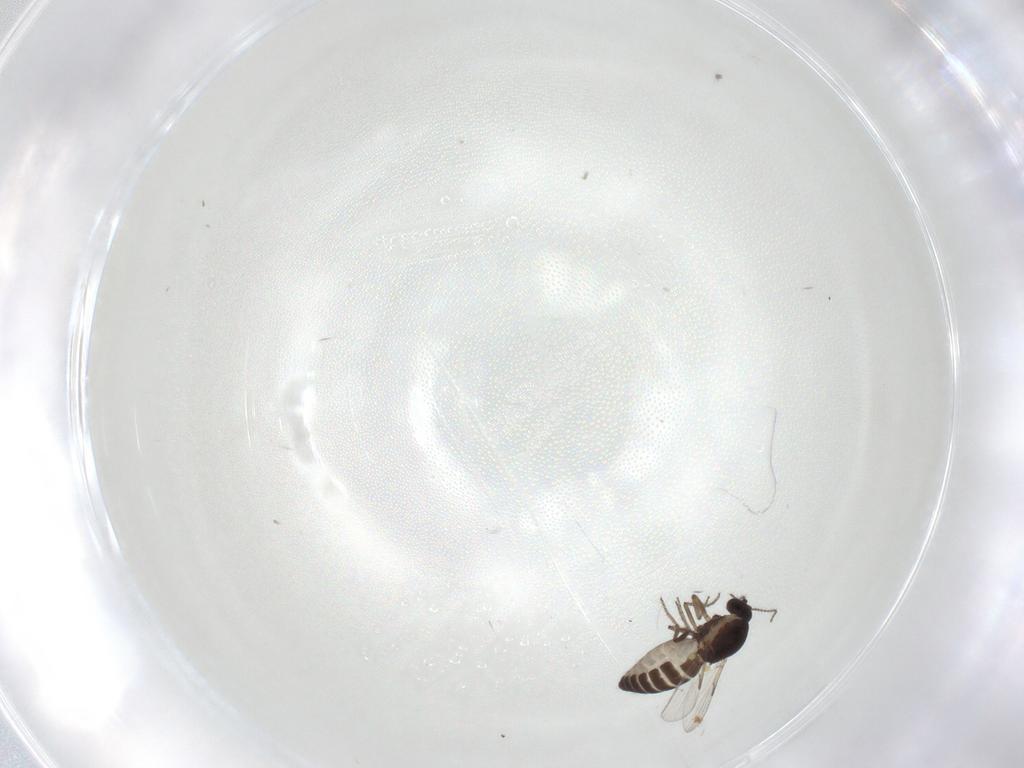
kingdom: Animalia
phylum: Arthropoda
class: Insecta
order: Diptera
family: Ceratopogonidae
